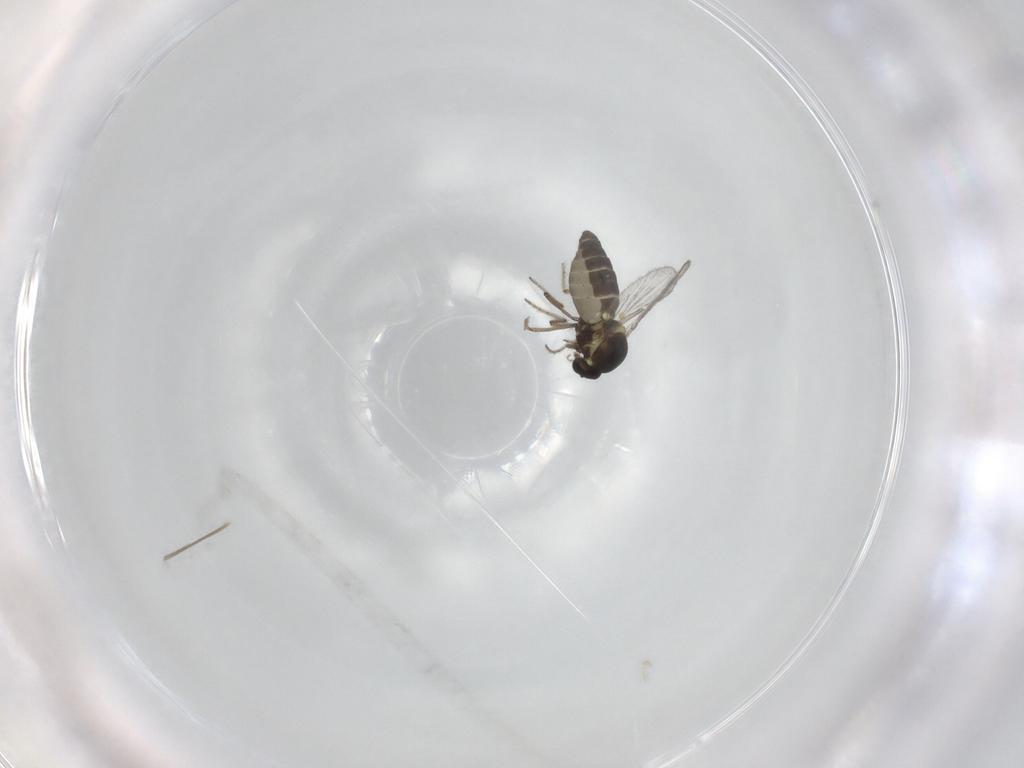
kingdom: Animalia
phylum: Arthropoda
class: Insecta
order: Diptera
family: Ceratopogonidae
